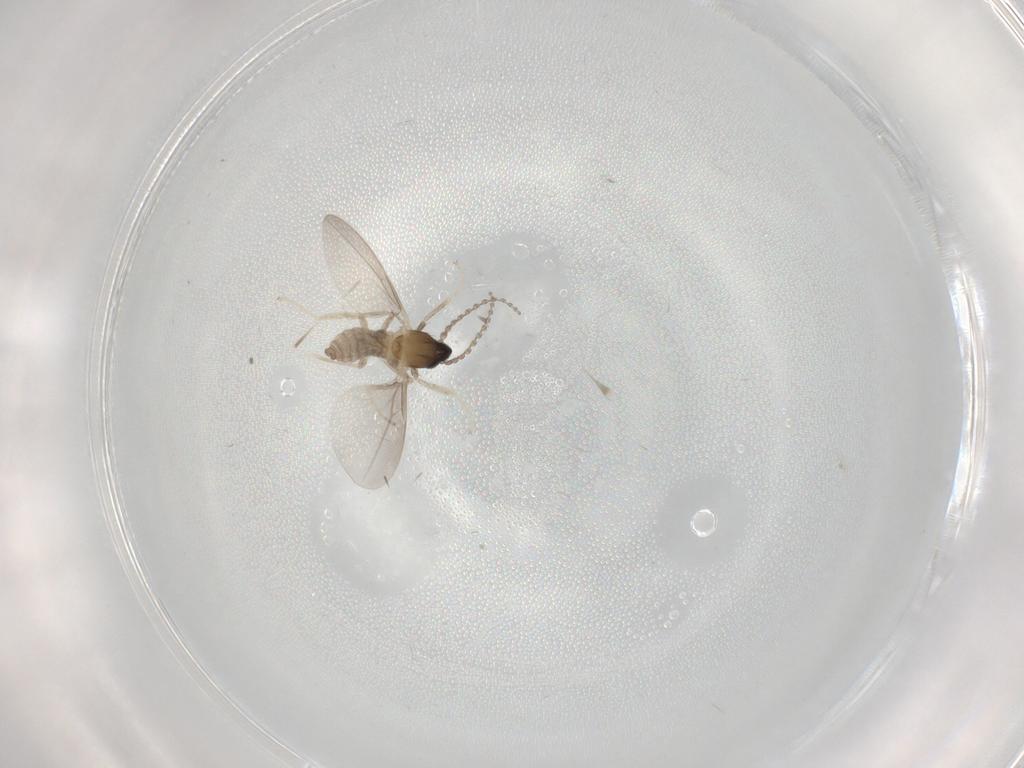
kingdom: Animalia
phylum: Arthropoda
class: Insecta
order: Diptera
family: Cecidomyiidae
